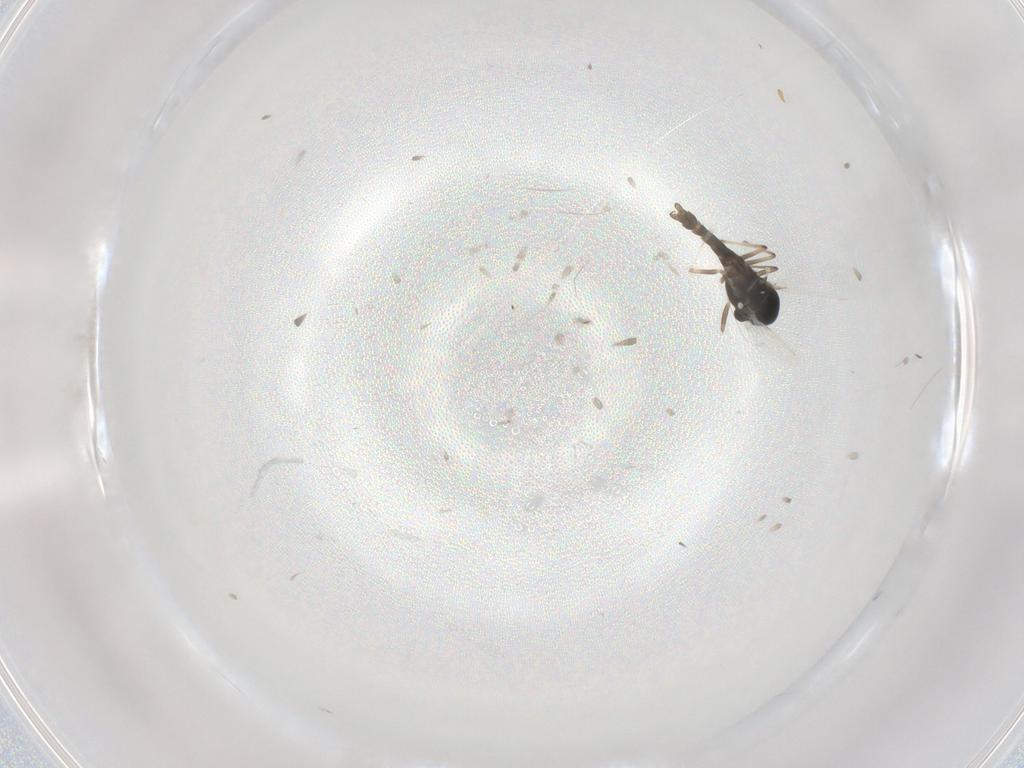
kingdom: Animalia
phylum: Arthropoda
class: Insecta
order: Diptera
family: Chironomidae
